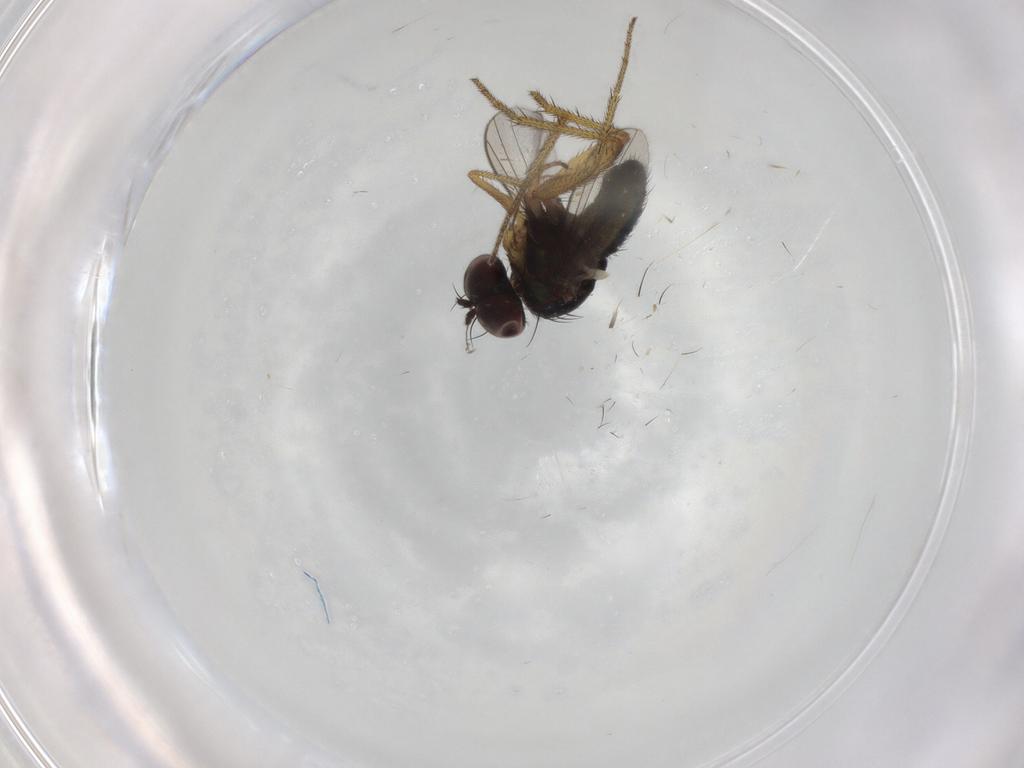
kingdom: Animalia
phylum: Arthropoda
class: Insecta
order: Diptera
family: Dolichopodidae
